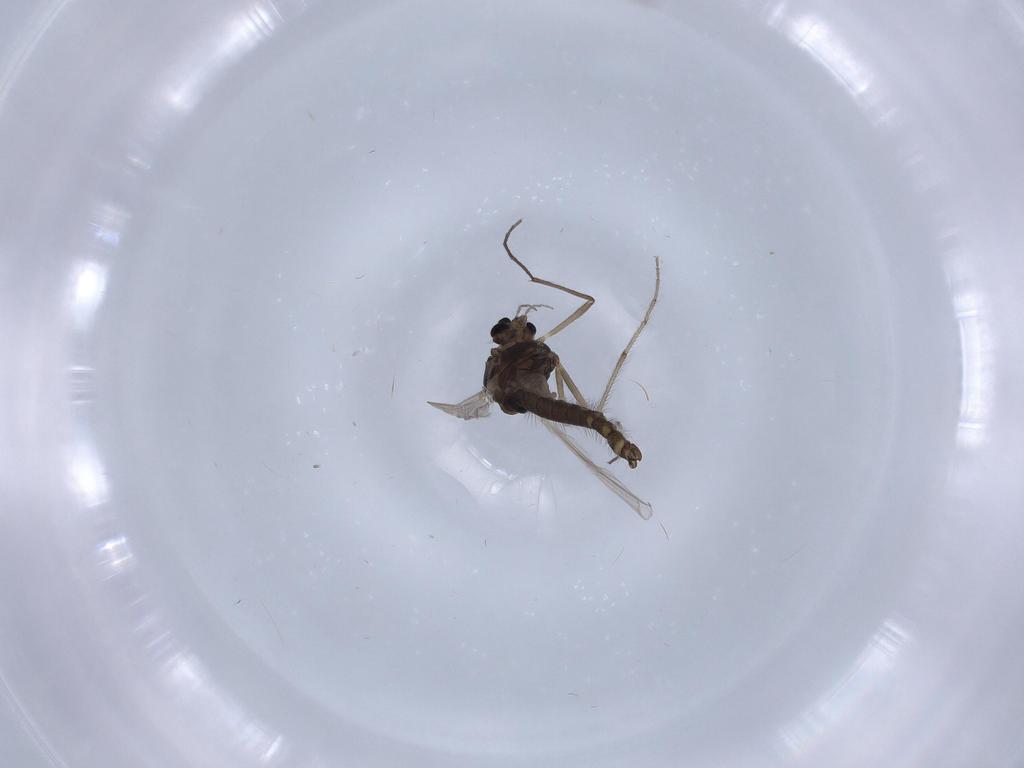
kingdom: Animalia
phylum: Arthropoda
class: Insecta
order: Diptera
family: Chironomidae
